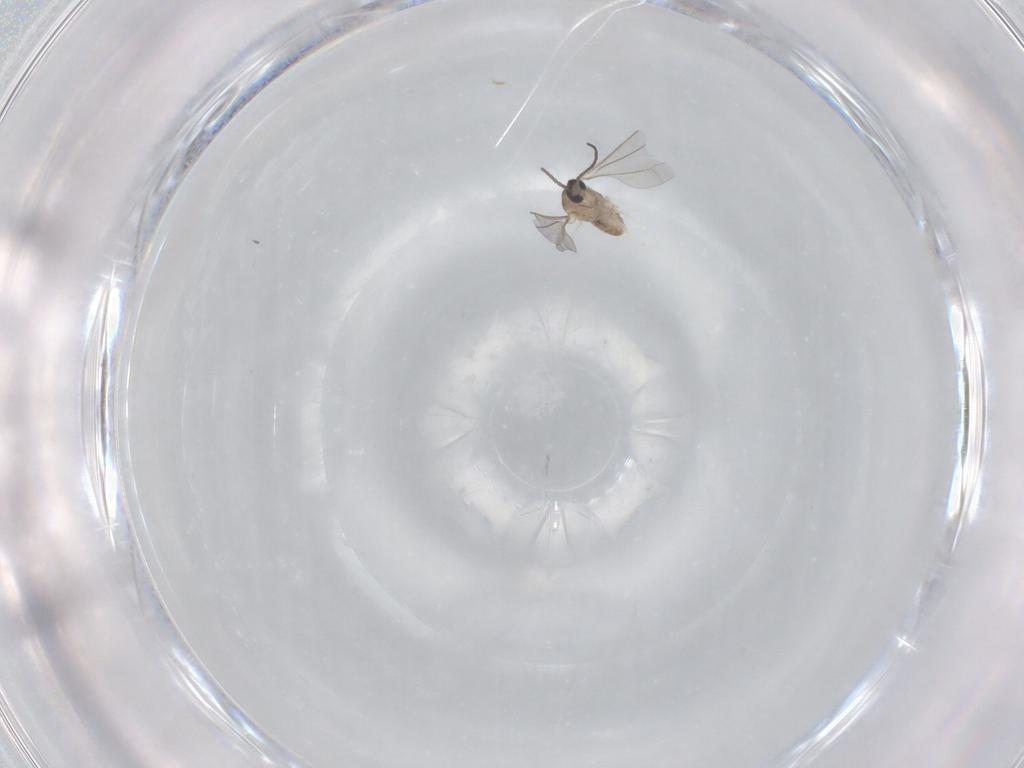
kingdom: Animalia
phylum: Arthropoda
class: Insecta
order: Diptera
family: Cecidomyiidae
